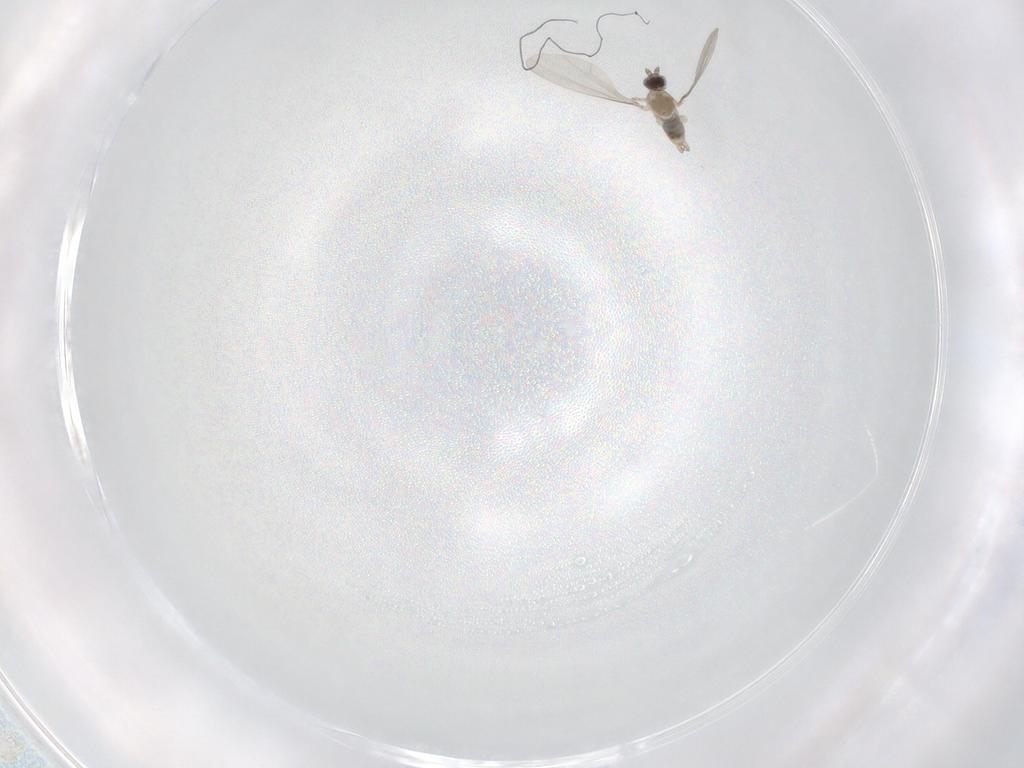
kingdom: Animalia
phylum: Arthropoda
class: Insecta
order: Diptera
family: Cecidomyiidae
